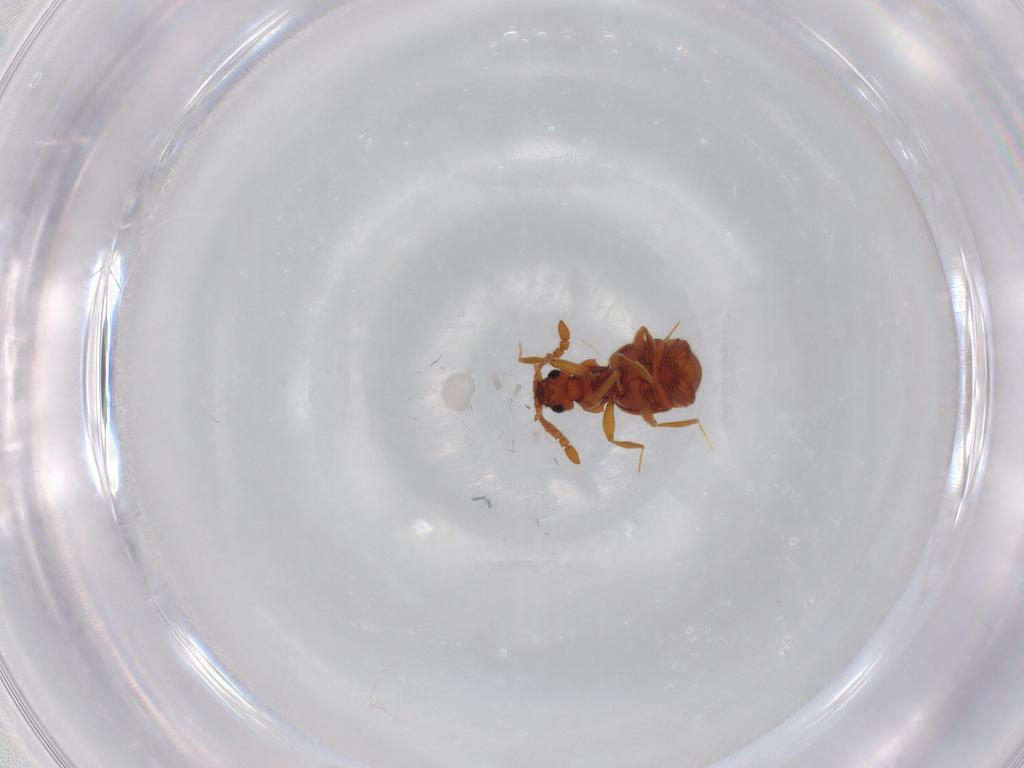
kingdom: Animalia
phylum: Arthropoda
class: Insecta
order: Coleoptera
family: Staphylinidae
